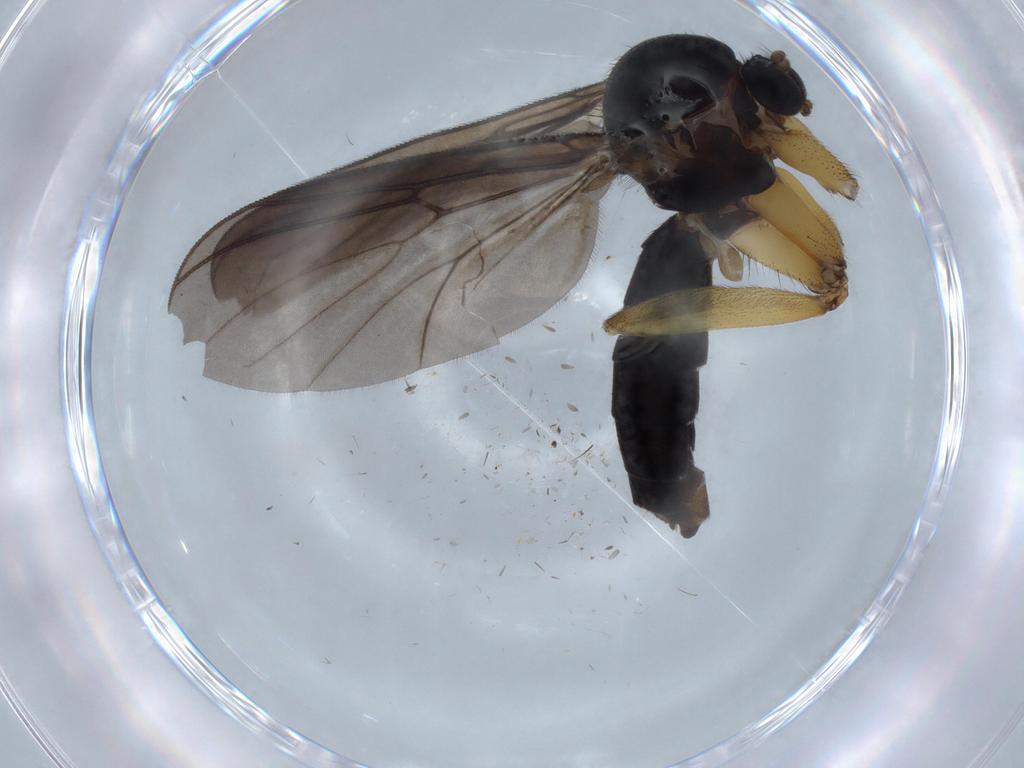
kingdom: Animalia
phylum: Arthropoda
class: Insecta
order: Diptera
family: Mycetophilidae
